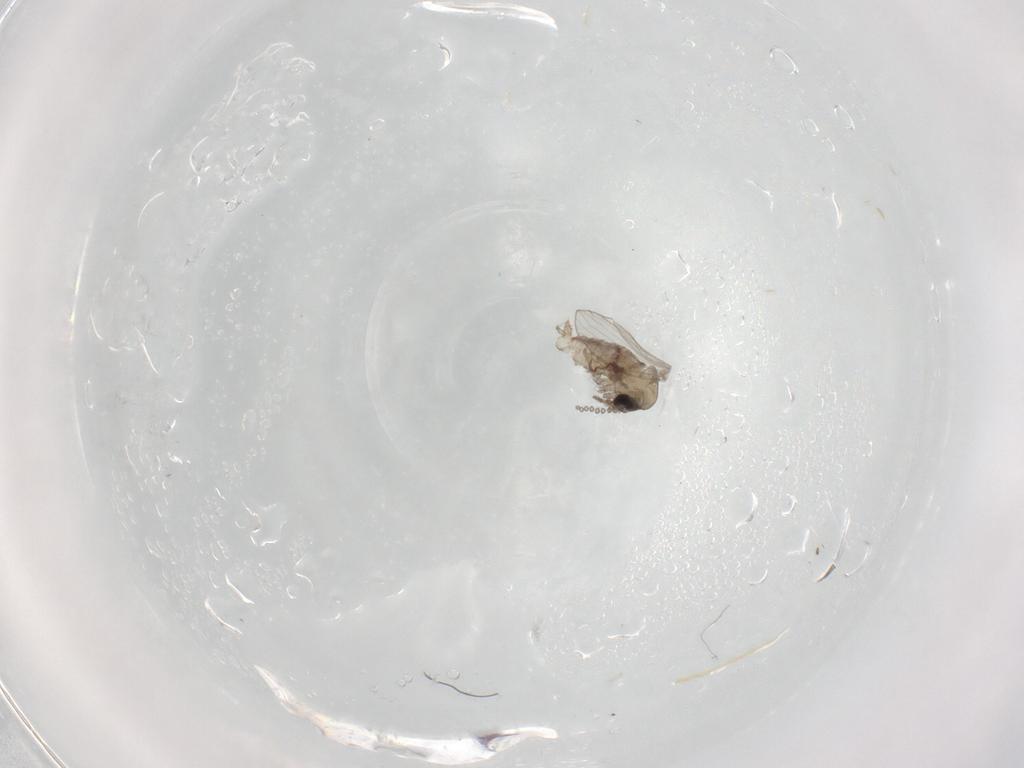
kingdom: Animalia
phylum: Arthropoda
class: Insecta
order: Diptera
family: Psychodidae
